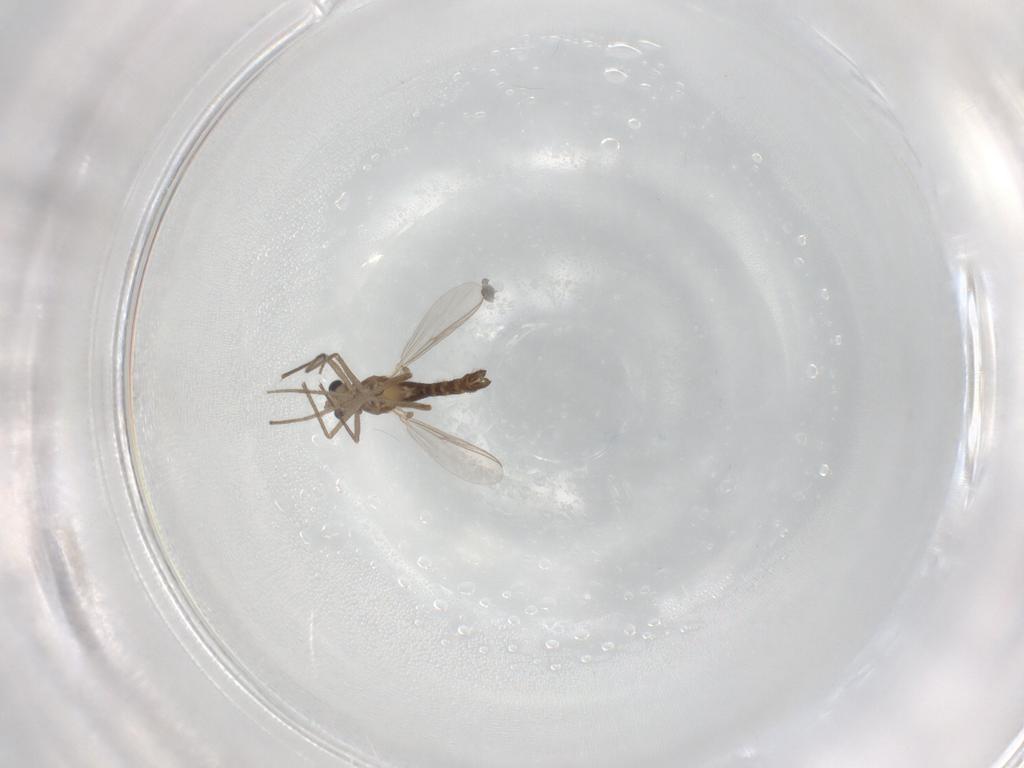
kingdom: Animalia
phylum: Arthropoda
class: Insecta
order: Diptera
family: Chironomidae
